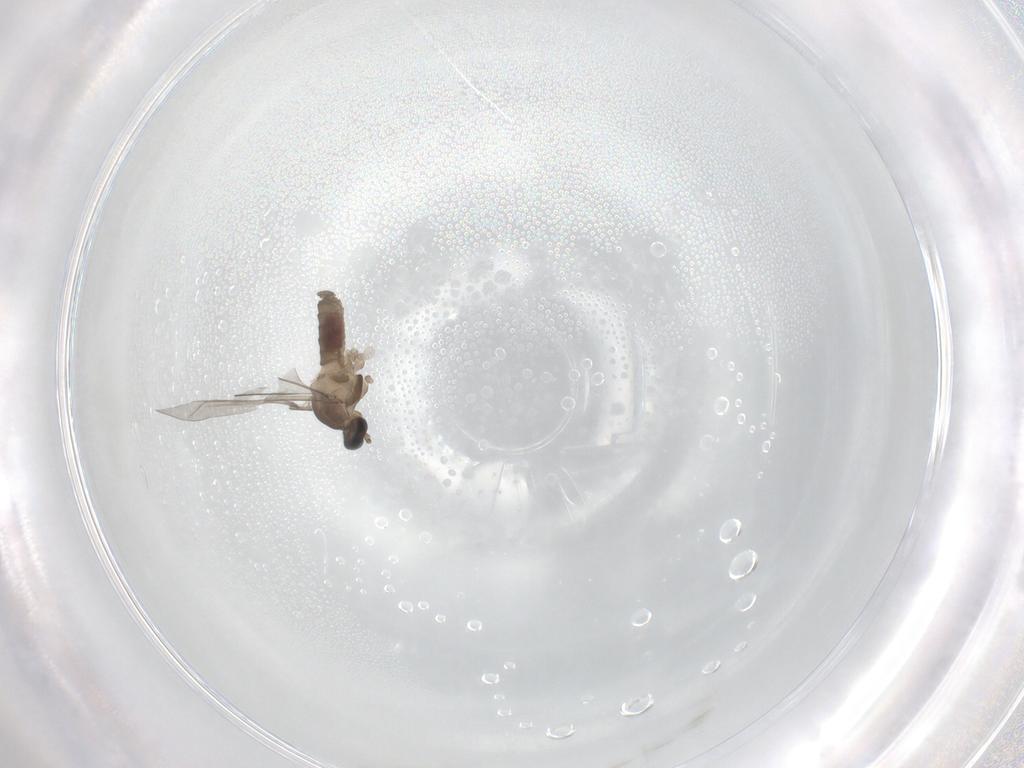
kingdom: Animalia
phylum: Arthropoda
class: Insecta
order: Diptera
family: Cecidomyiidae
